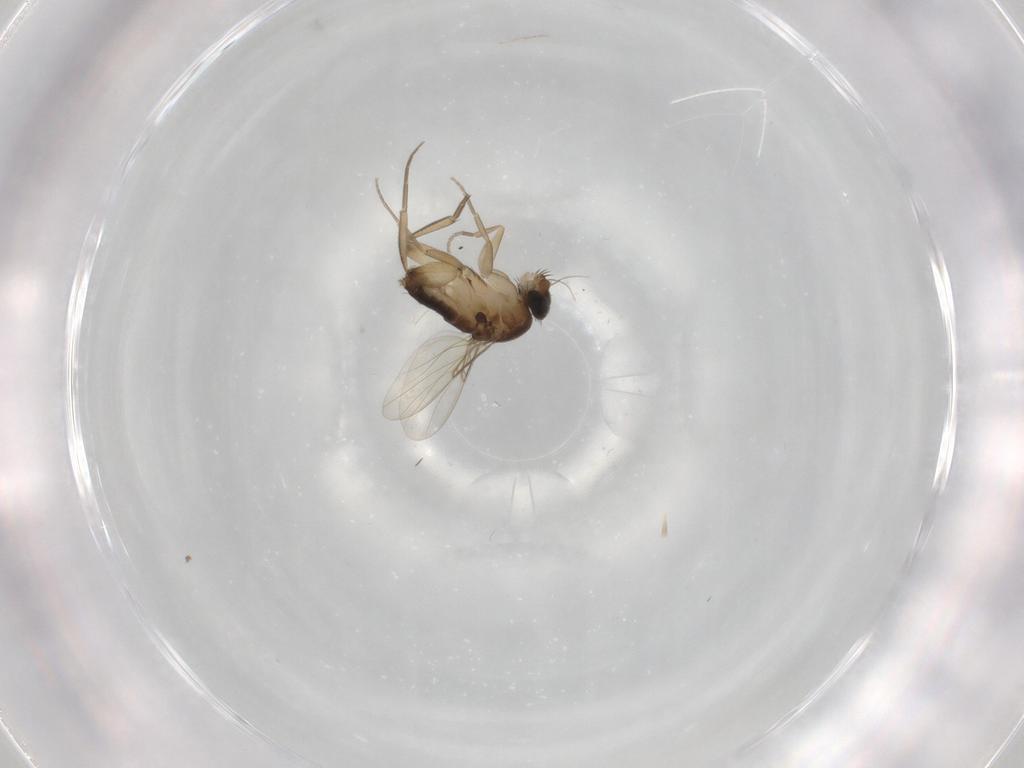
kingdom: Animalia
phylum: Arthropoda
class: Insecta
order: Diptera
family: Phoridae
